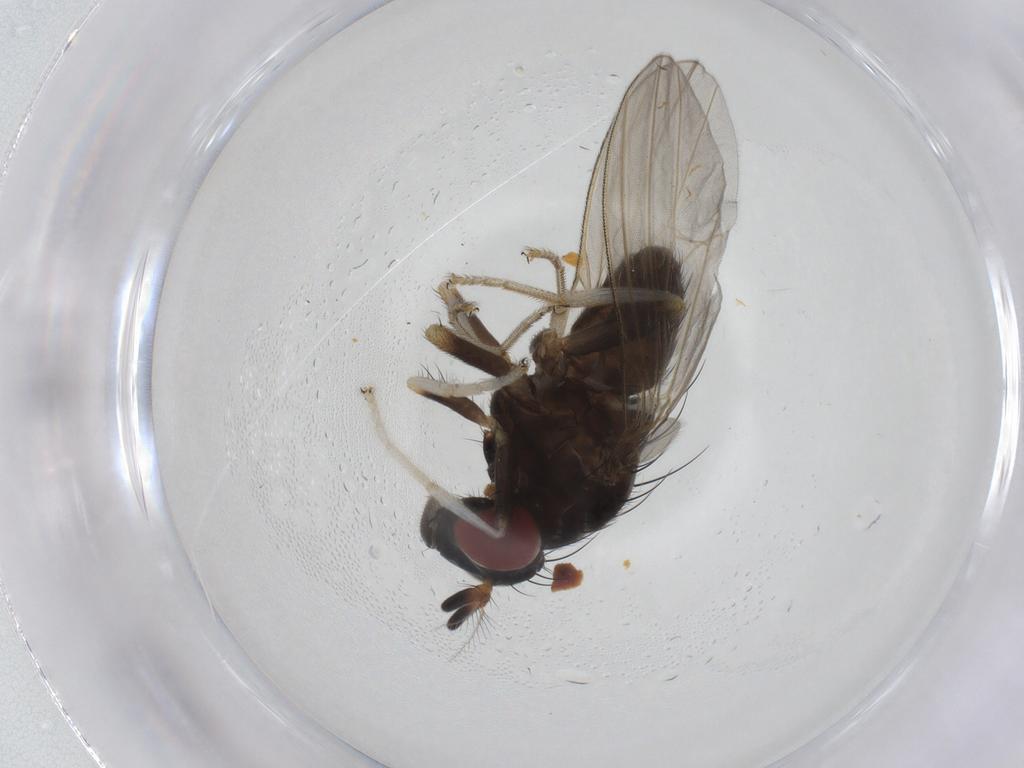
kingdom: Animalia
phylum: Arthropoda
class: Insecta
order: Diptera
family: Lauxaniidae
